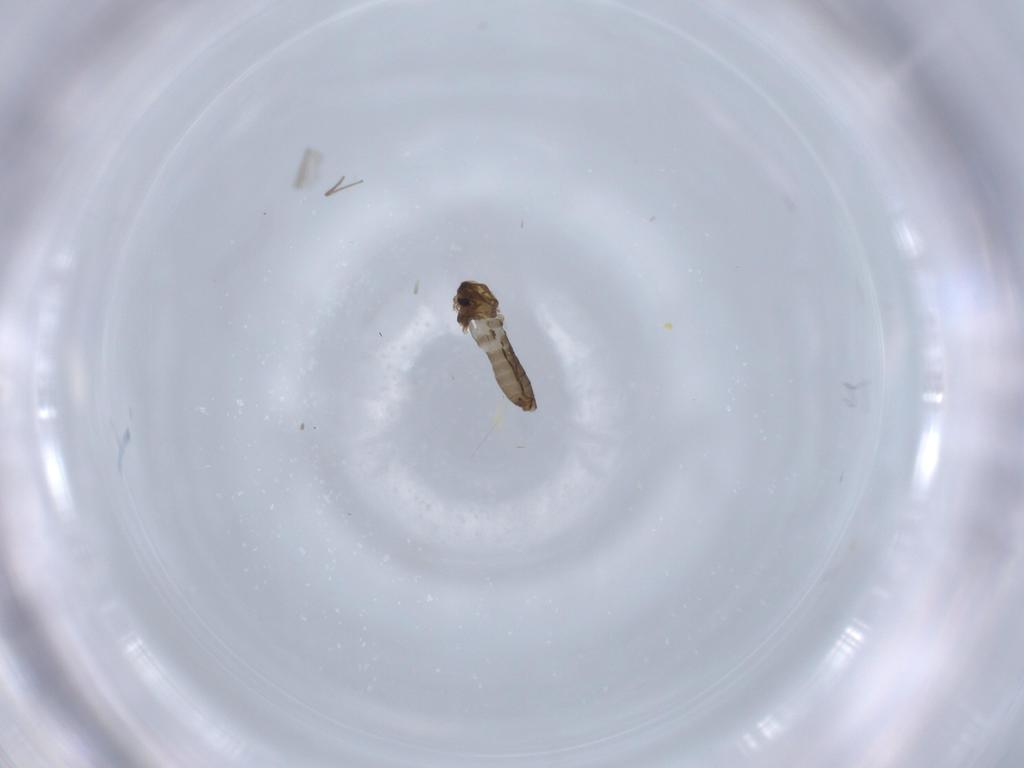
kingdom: Animalia
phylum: Arthropoda
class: Insecta
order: Diptera
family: Chironomidae
